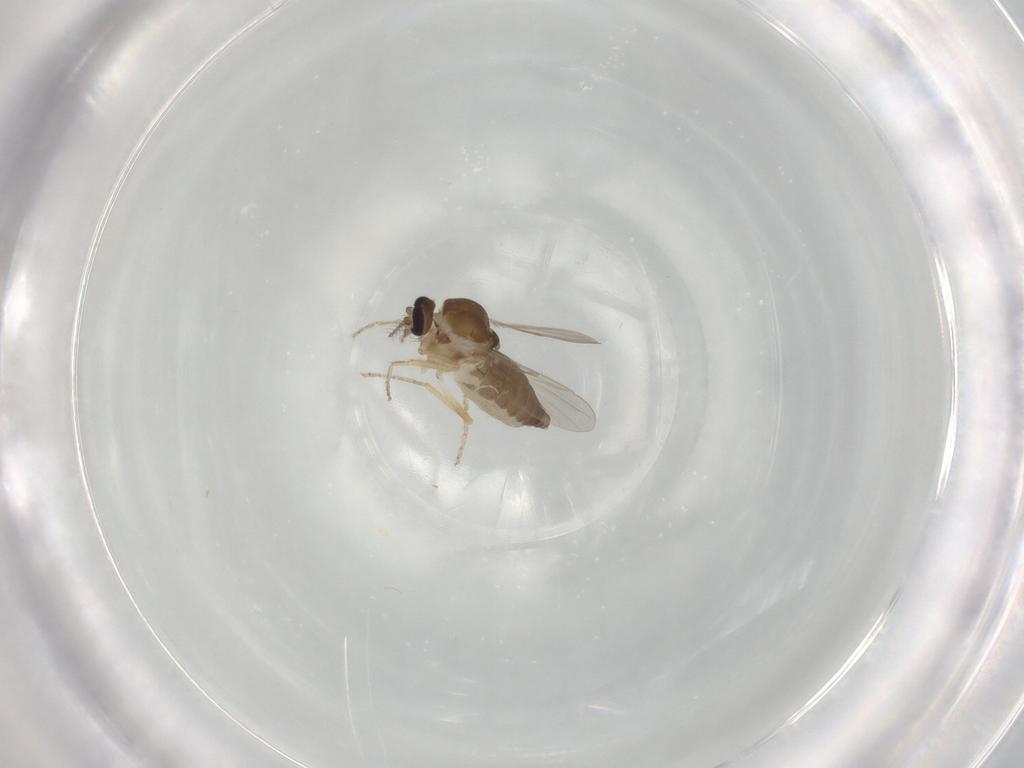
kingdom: Animalia
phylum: Arthropoda
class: Insecta
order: Diptera
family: Ceratopogonidae
